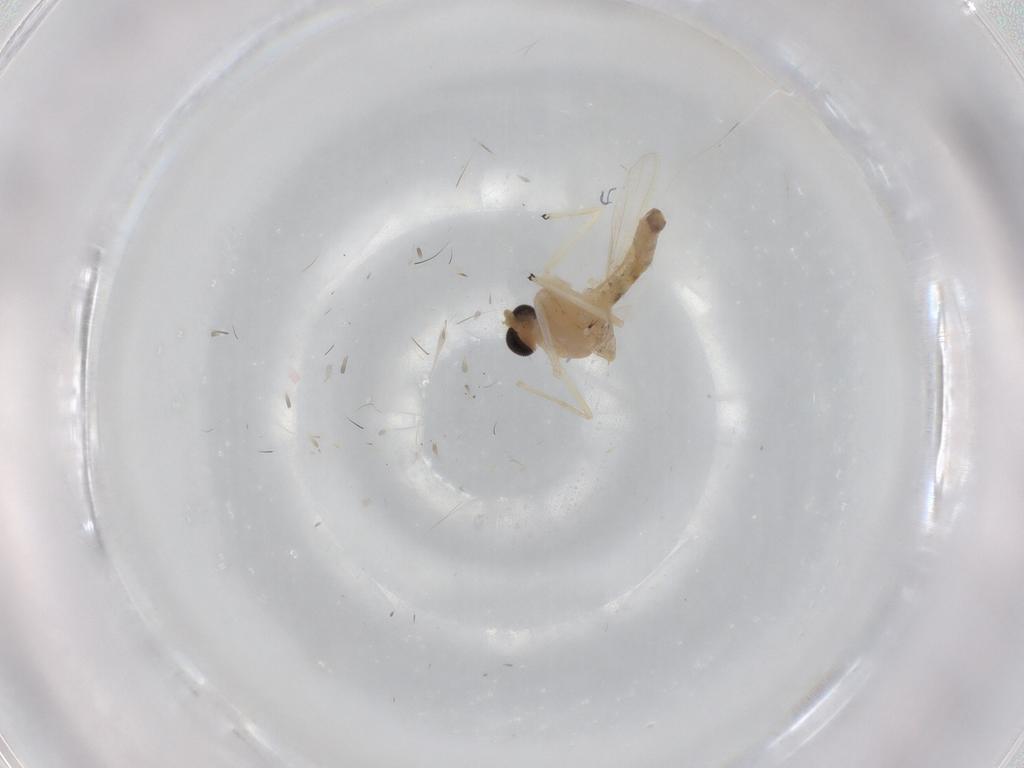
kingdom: Animalia
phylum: Arthropoda
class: Insecta
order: Diptera
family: Chironomidae
